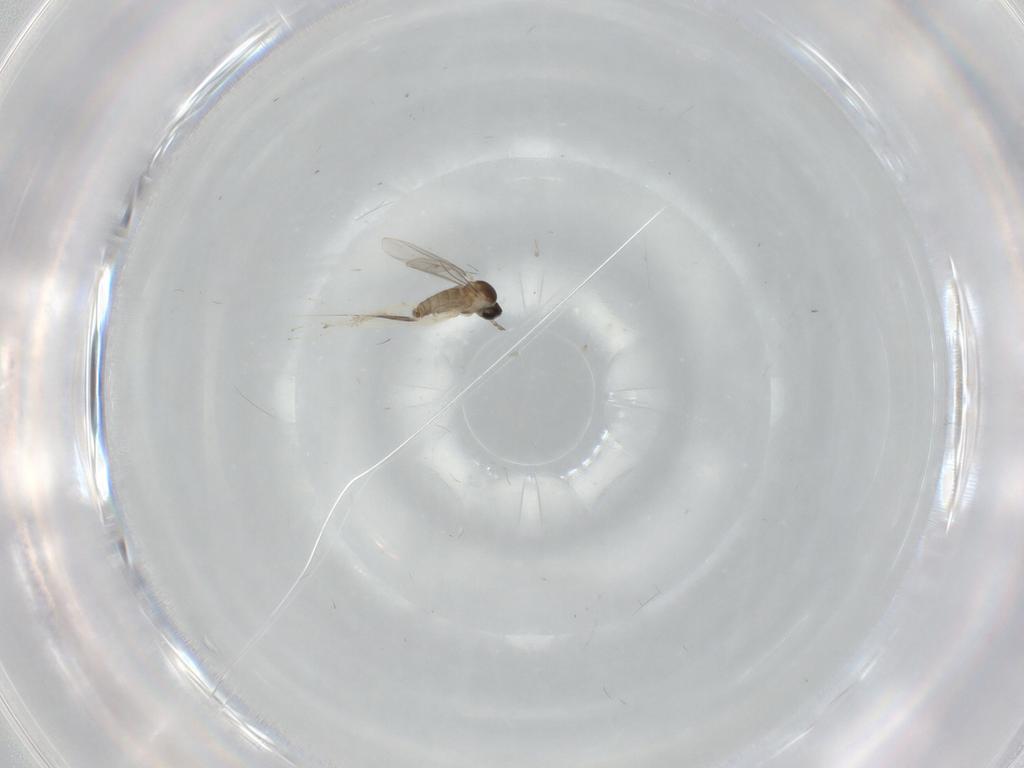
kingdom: Animalia
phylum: Arthropoda
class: Insecta
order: Diptera
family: Cecidomyiidae
